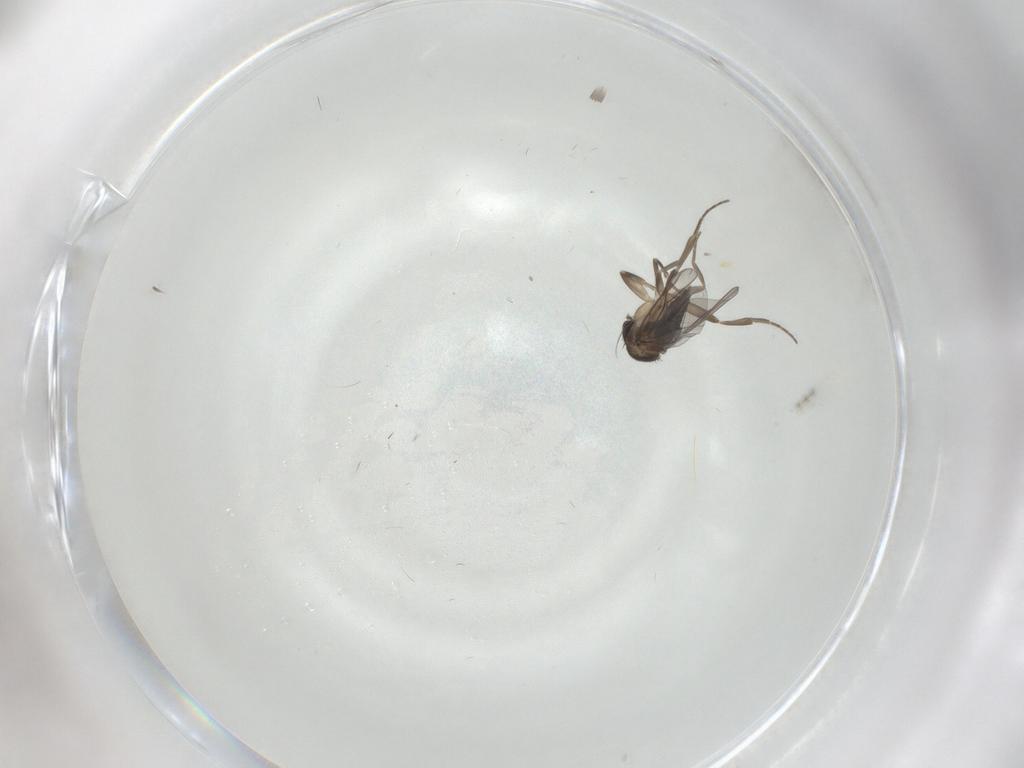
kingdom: Animalia
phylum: Arthropoda
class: Insecta
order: Diptera
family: Phoridae
